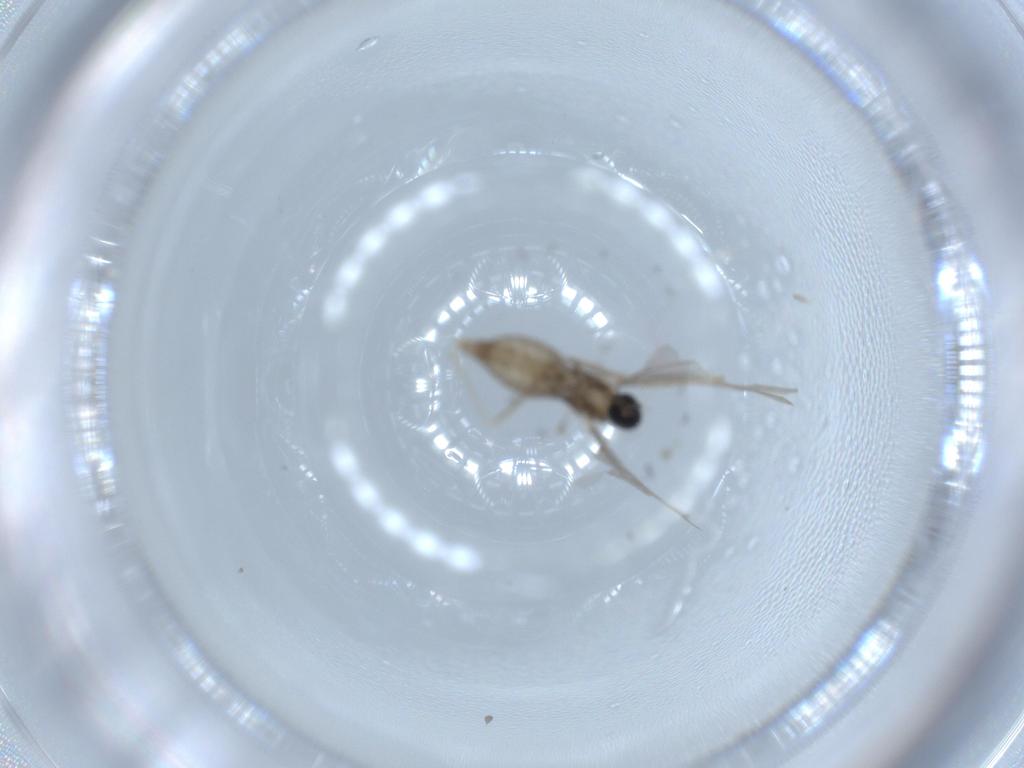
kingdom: Animalia
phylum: Arthropoda
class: Insecta
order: Diptera
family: Cecidomyiidae
